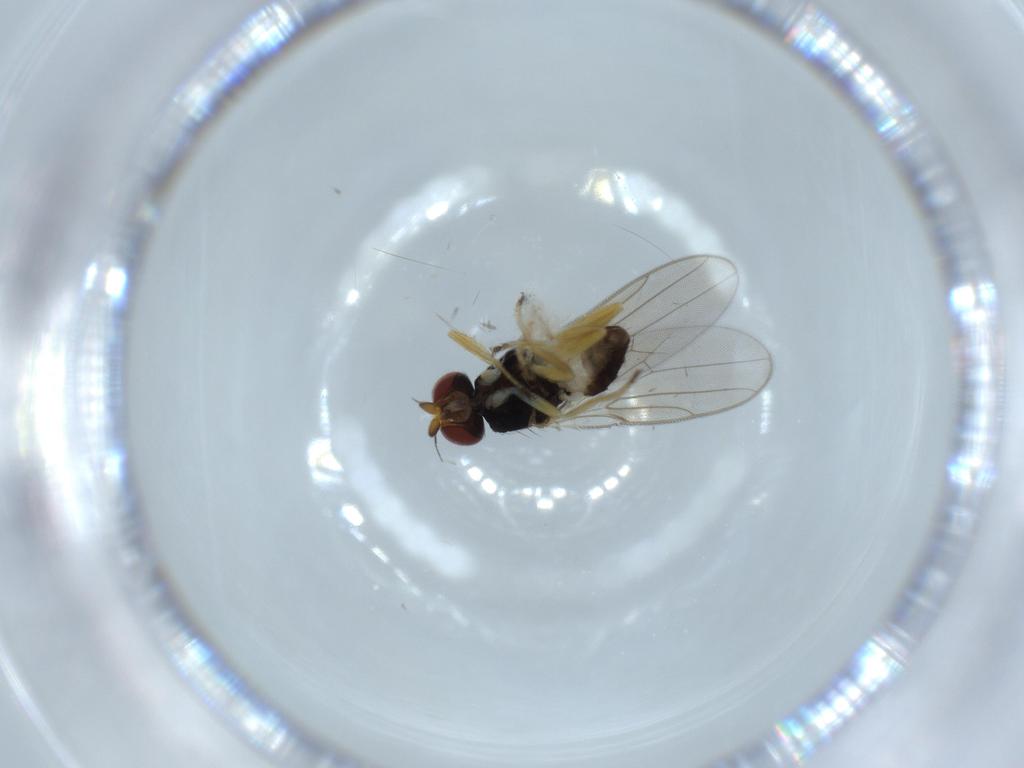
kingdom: Animalia
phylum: Arthropoda
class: Insecta
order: Diptera
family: Chloropidae
